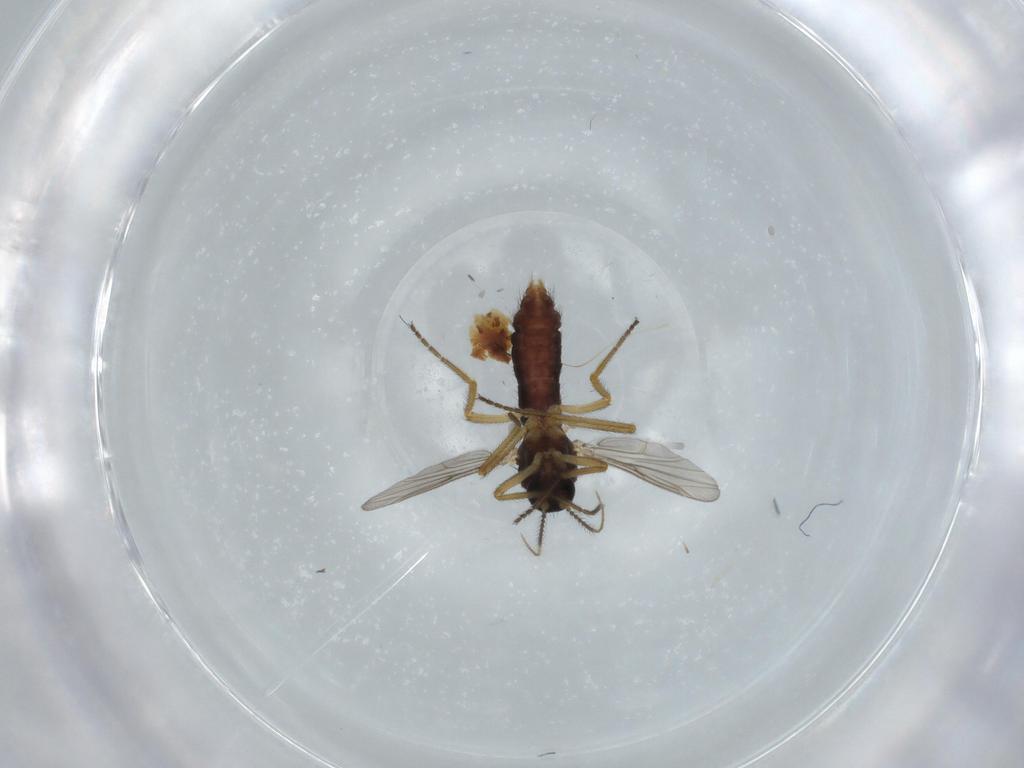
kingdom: Animalia
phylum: Arthropoda
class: Insecta
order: Diptera
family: Ceratopogonidae
